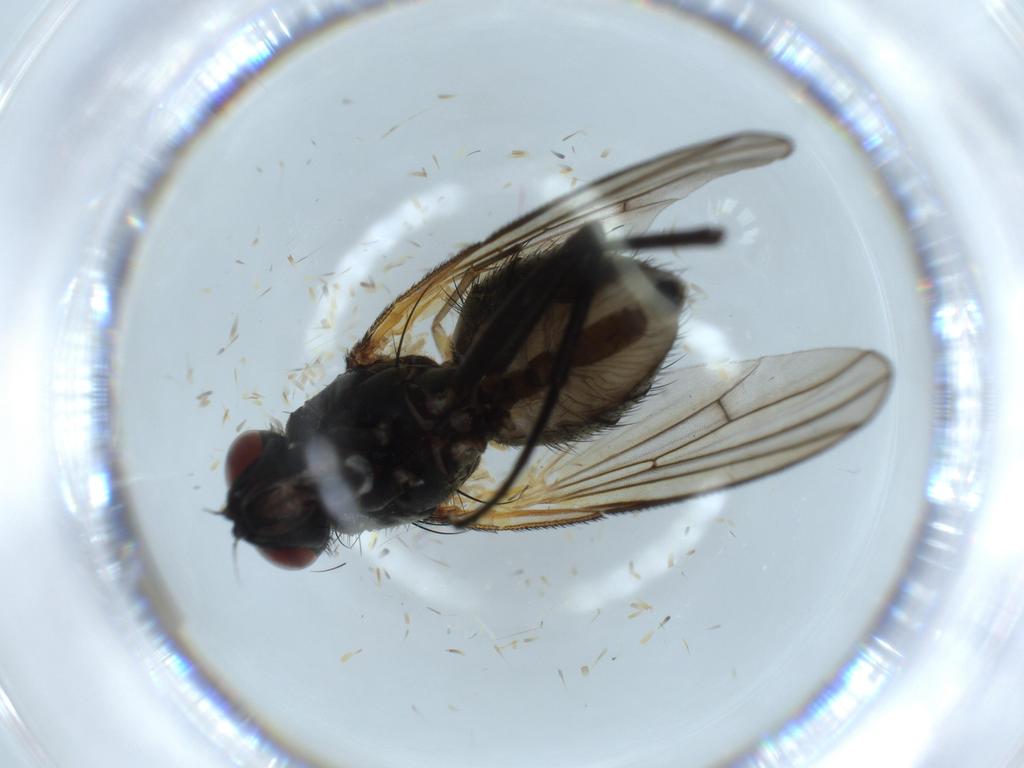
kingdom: Animalia
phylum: Arthropoda
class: Insecta
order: Diptera
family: Muscidae
